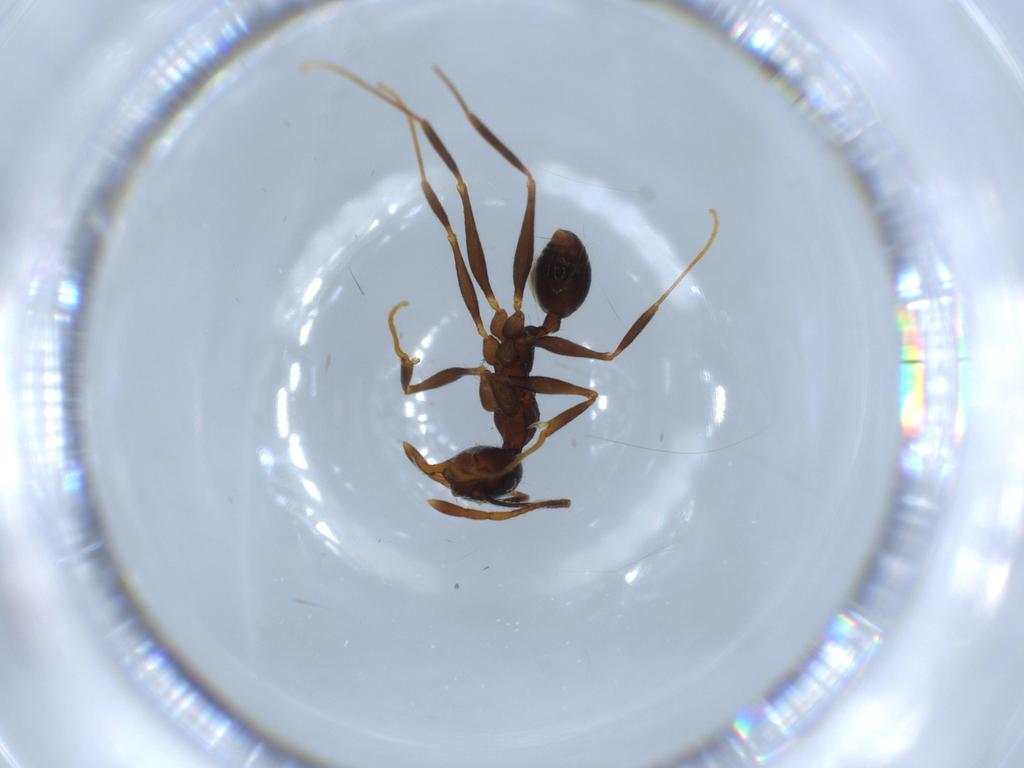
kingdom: Animalia
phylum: Arthropoda
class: Insecta
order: Hymenoptera
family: Formicidae
